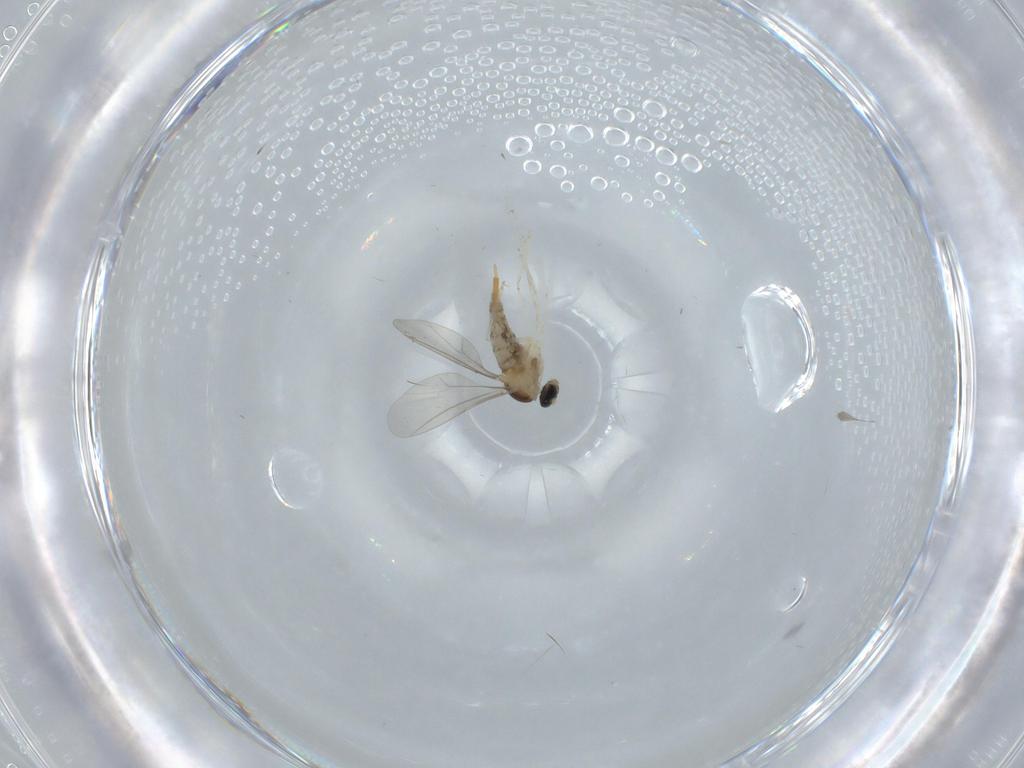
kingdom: Animalia
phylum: Arthropoda
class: Insecta
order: Diptera
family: Cecidomyiidae
